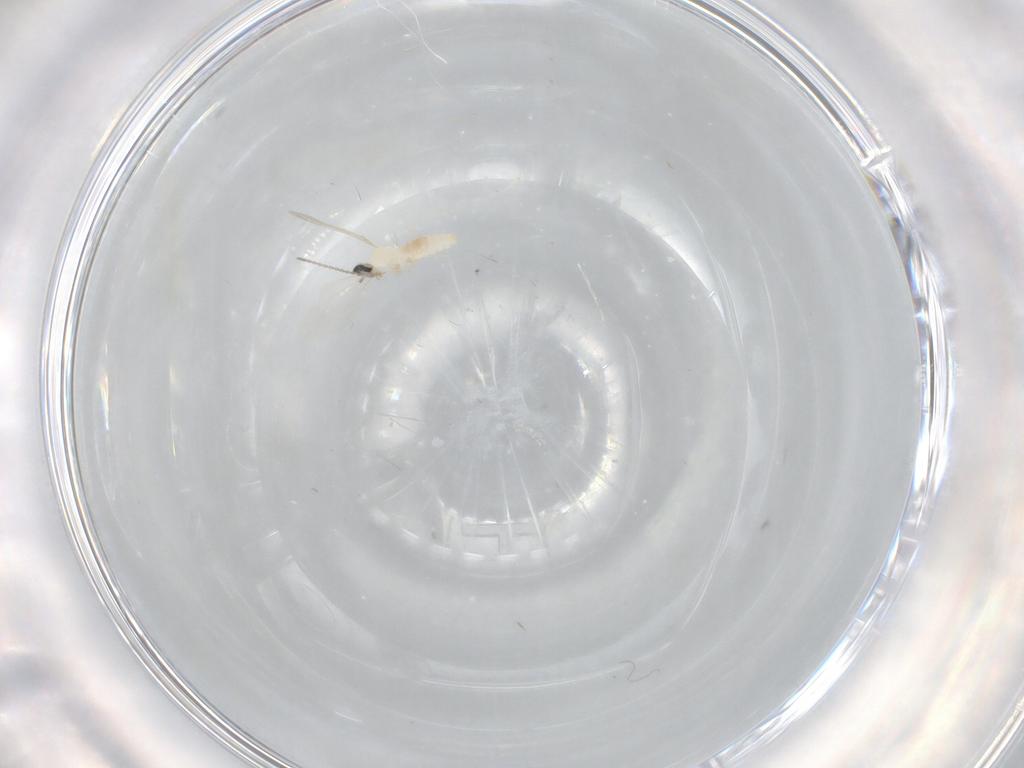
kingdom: Animalia
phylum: Arthropoda
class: Insecta
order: Diptera
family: Cecidomyiidae
